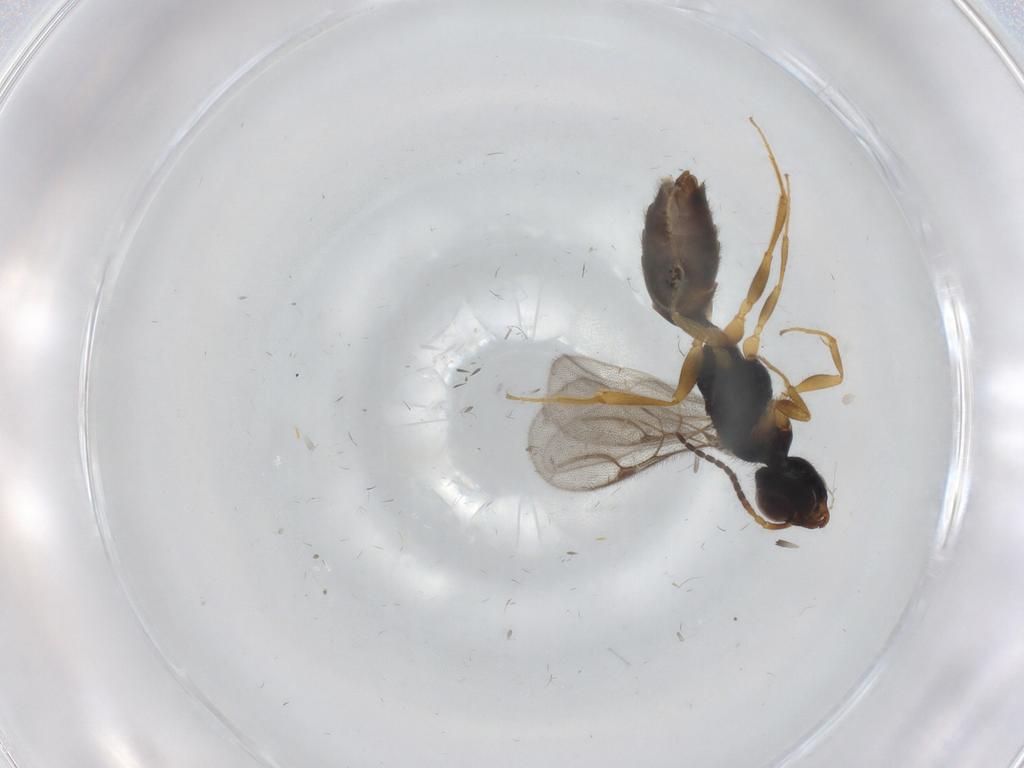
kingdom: Animalia
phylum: Arthropoda
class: Insecta
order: Hymenoptera
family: Bethylidae
